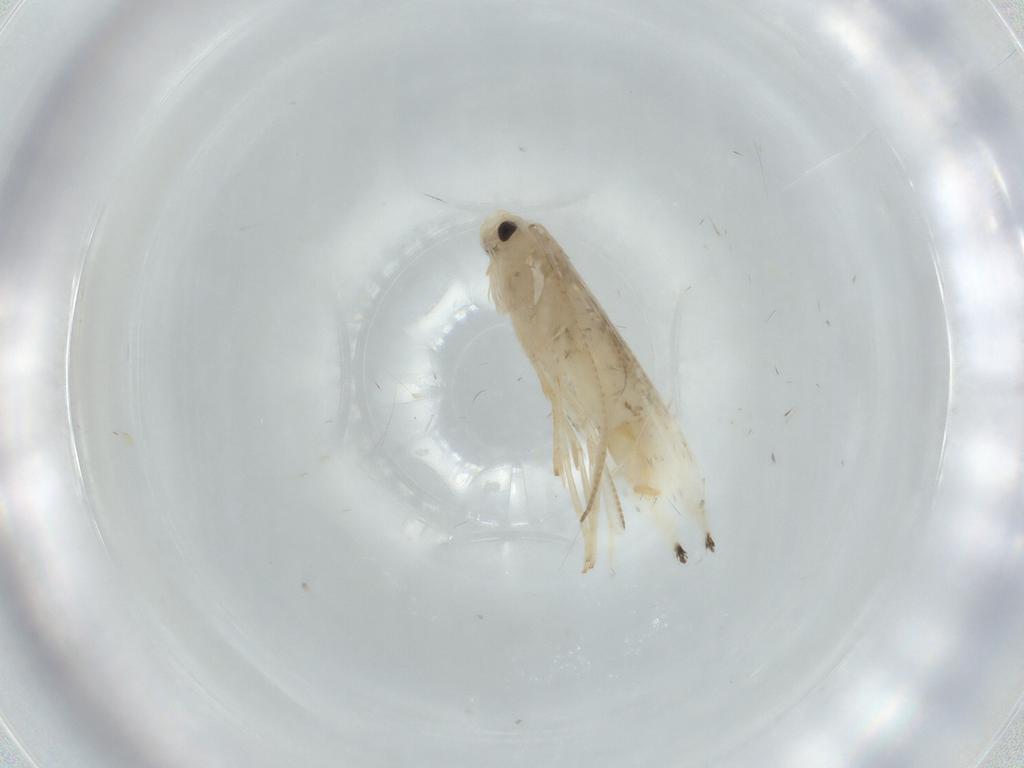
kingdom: Animalia
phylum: Arthropoda
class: Insecta
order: Lepidoptera
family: Gracillariidae
